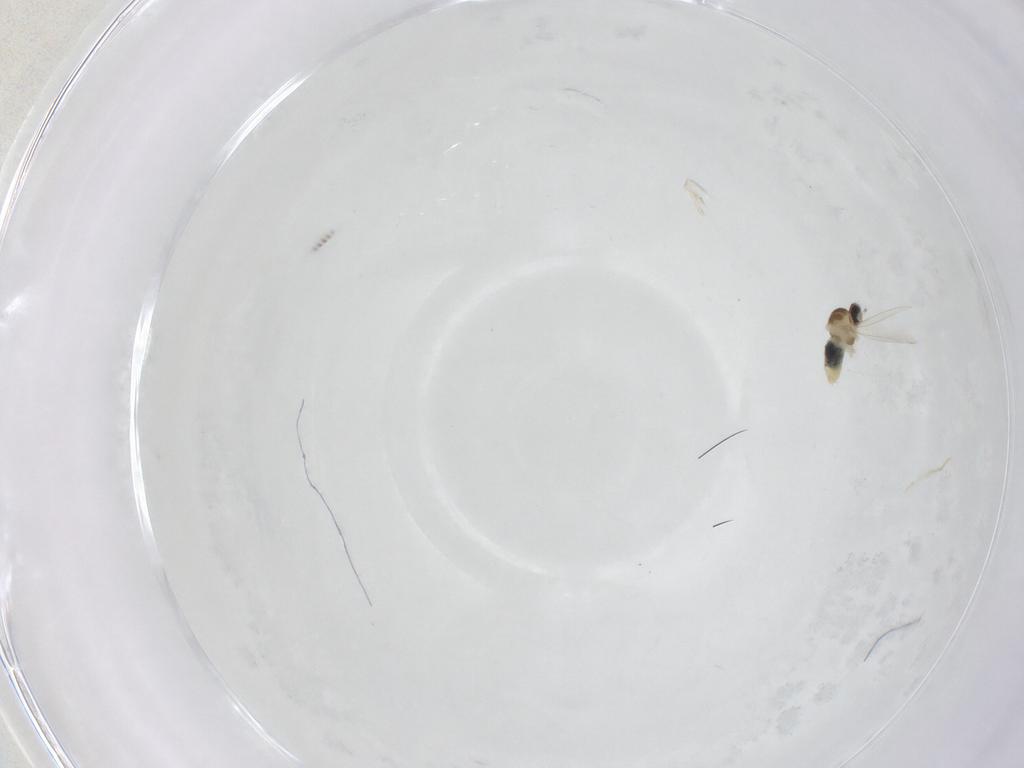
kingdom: Animalia
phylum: Arthropoda
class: Insecta
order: Diptera
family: Cecidomyiidae
